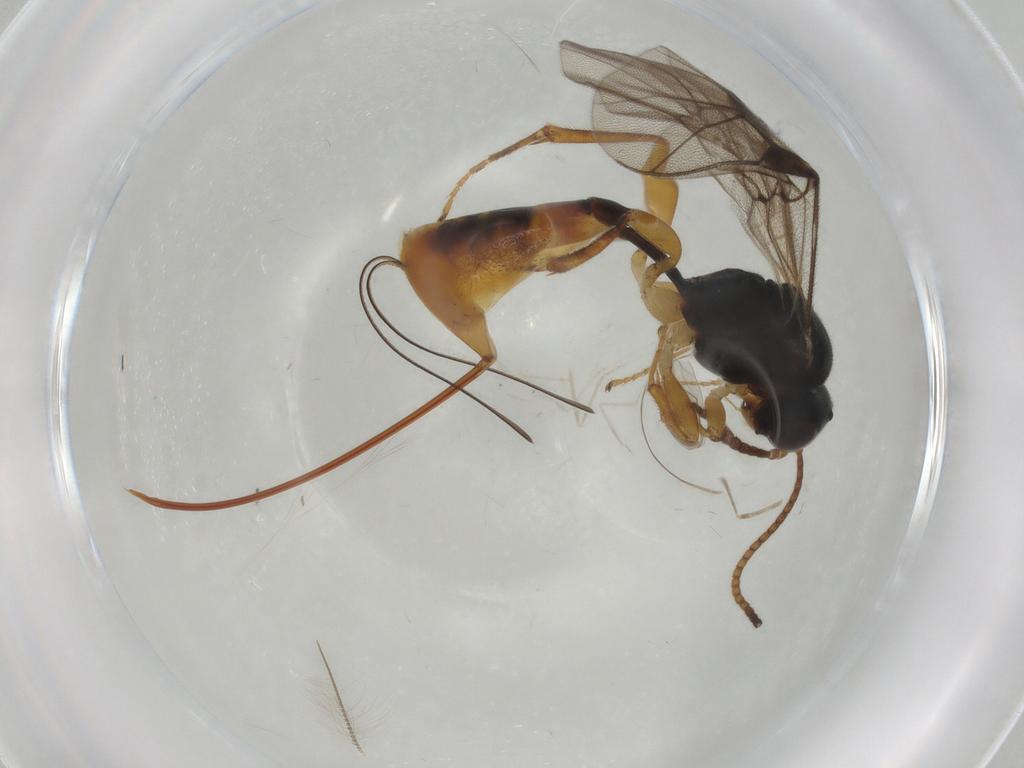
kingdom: Animalia
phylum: Arthropoda
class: Insecta
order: Hymenoptera
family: Ichneumonidae
